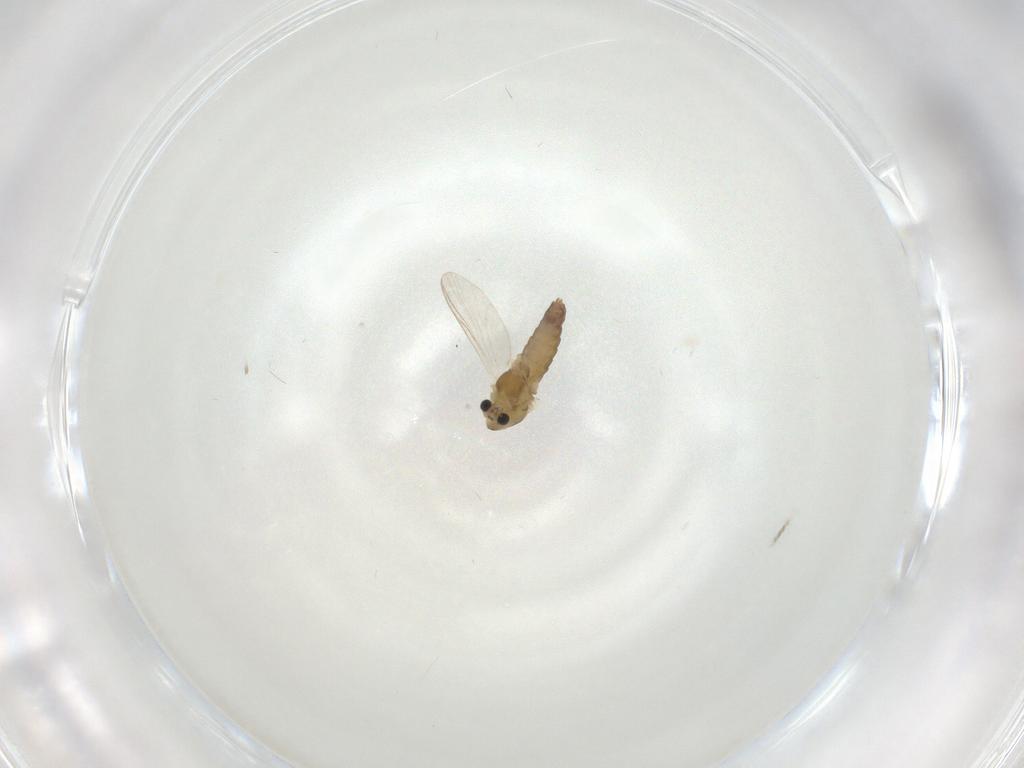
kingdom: Animalia
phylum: Arthropoda
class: Insecta
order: Diptera
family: Chironomidae
